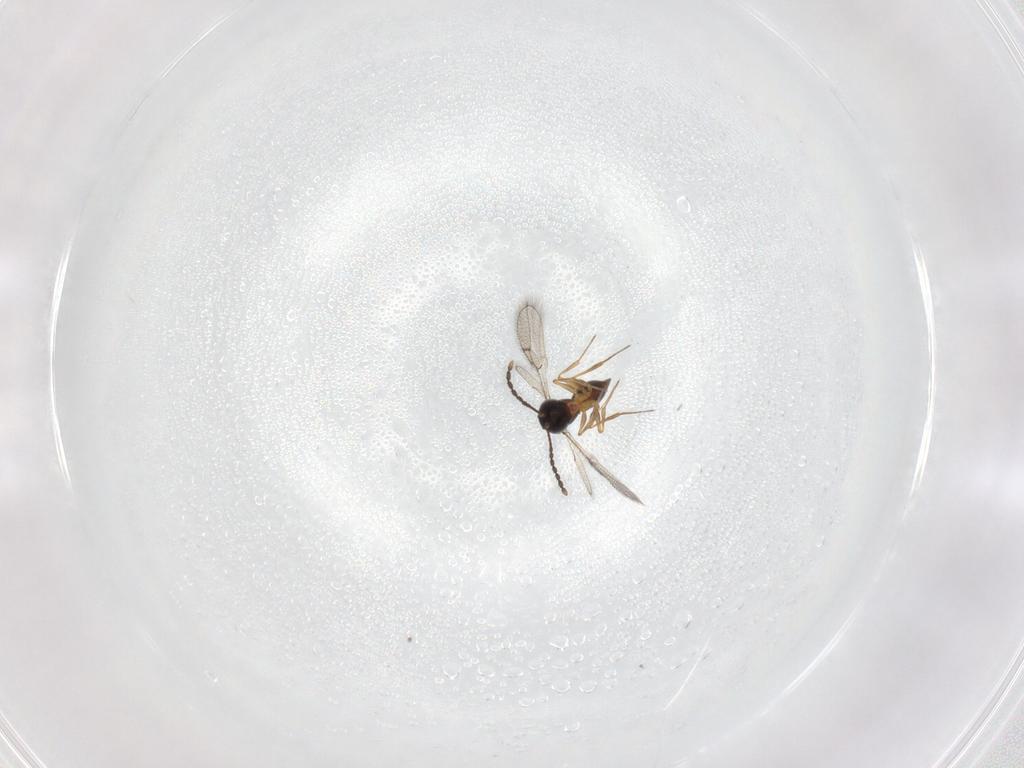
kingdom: Animalia
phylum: Arthropoda
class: Insecta
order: Hymenoptera
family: Figitidae
